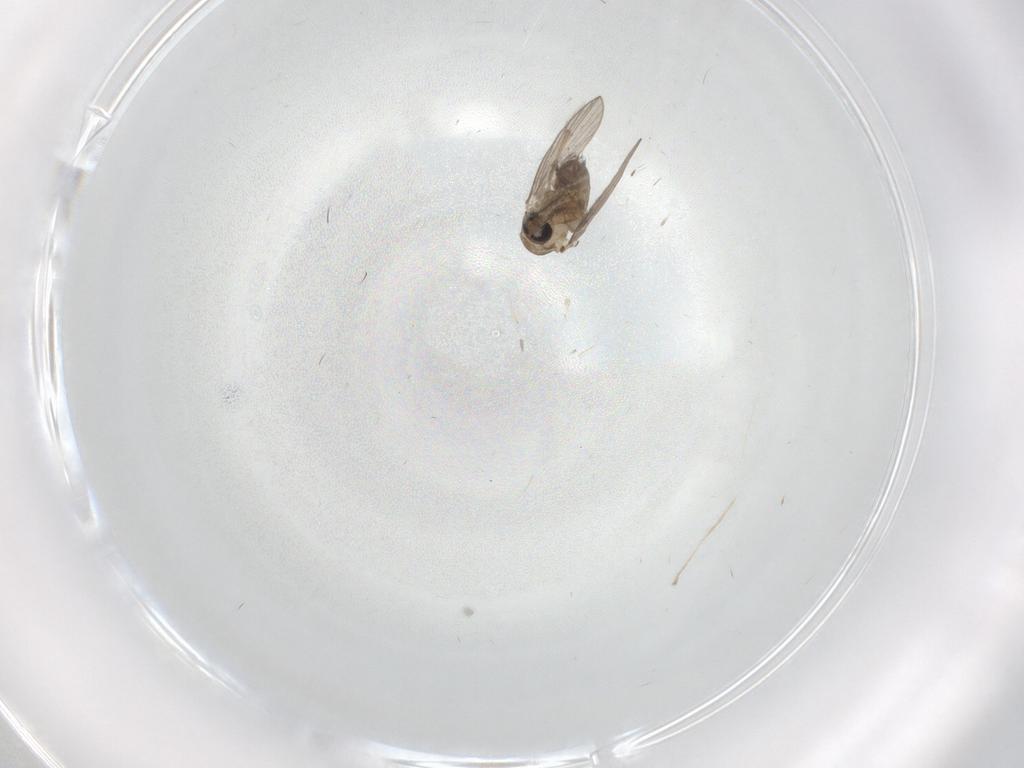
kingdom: Animalia
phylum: Arthropoda
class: Insecta
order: Diptera
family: Psychodidae
